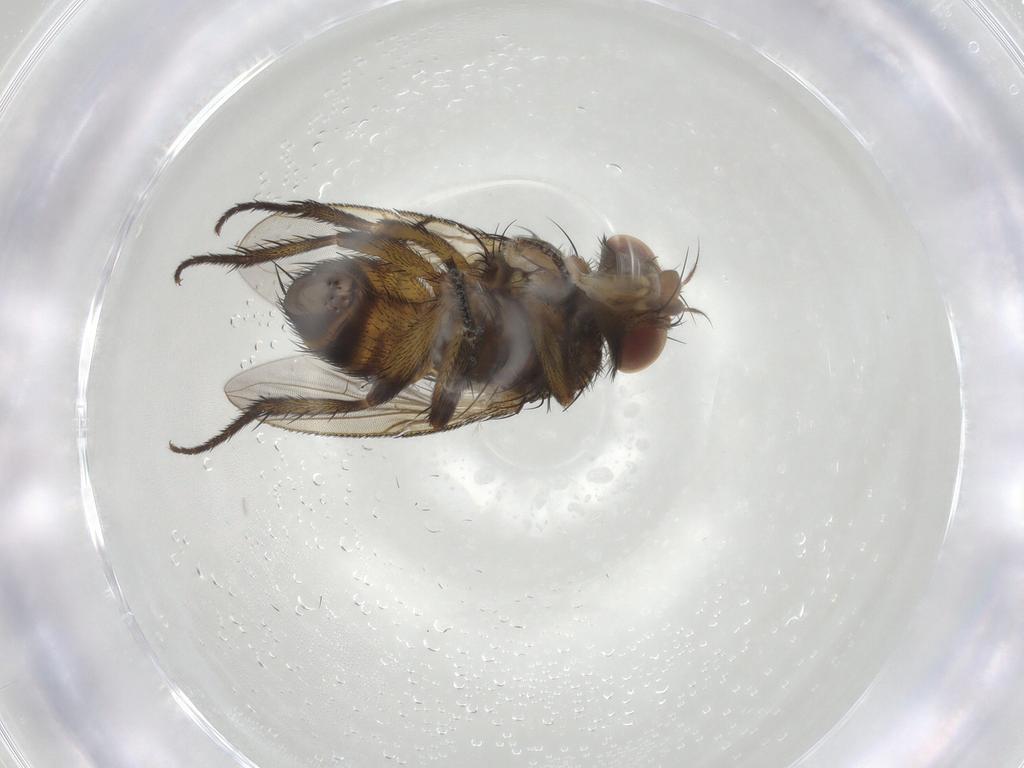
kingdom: Animalia
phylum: Arthropoda
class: Insecta
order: Diptera
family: Tachinidae
